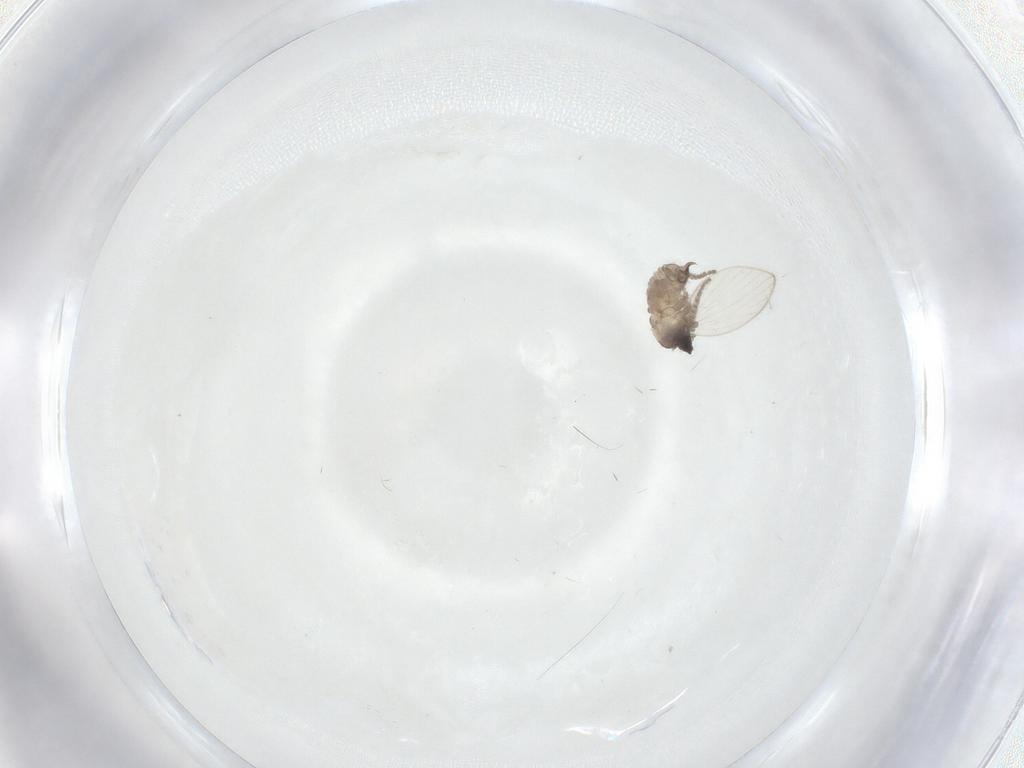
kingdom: Animalia
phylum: Arthropoda
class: Insecta
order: Diptera
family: Psychodidae
